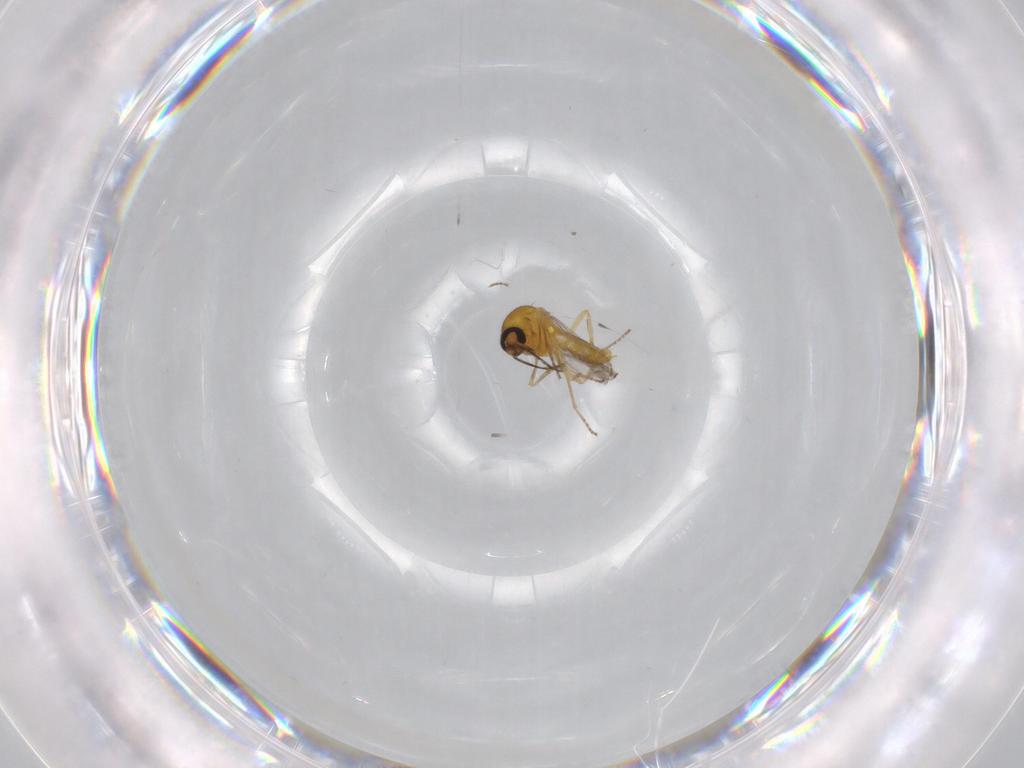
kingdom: Animalia
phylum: Arthropoda
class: Insecta
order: Diptera
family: Ceratopogonidae
